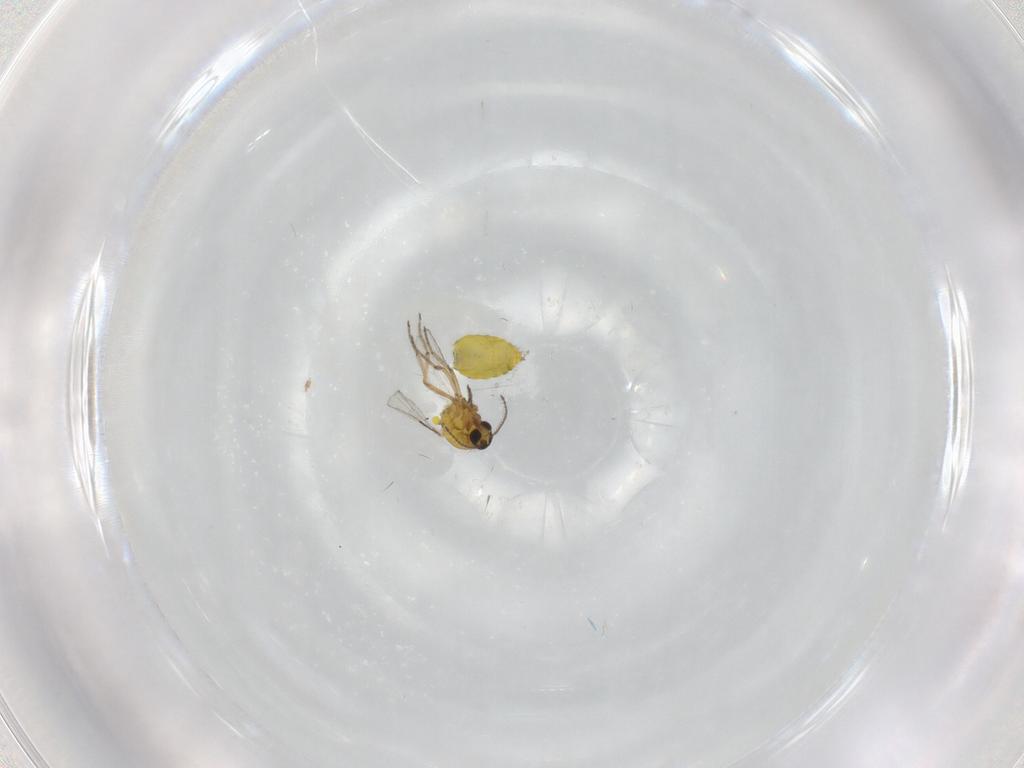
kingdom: Animalia
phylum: Arthropoda
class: Insecta
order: Diptera
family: Ceratopogonidae
